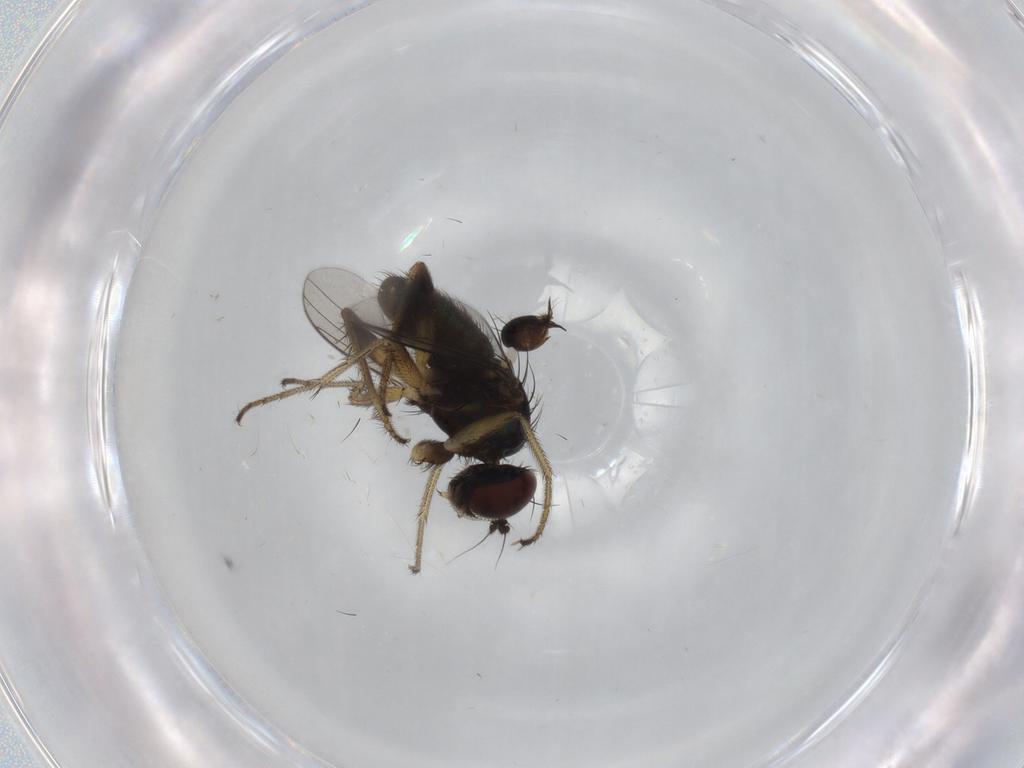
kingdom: Animalia
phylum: Arthropoda
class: Insecta
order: Diptera
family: Dolichopodidae
